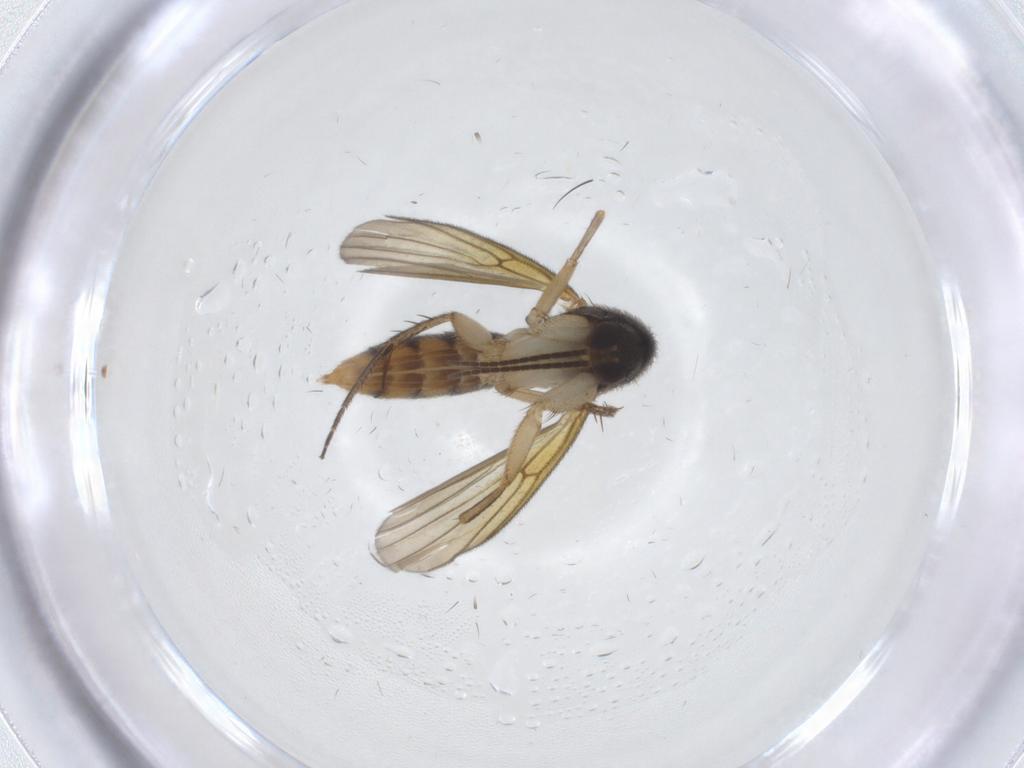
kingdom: Animalia
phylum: Arthropoda
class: Insecta
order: Diptera
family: Mycetophilidae
